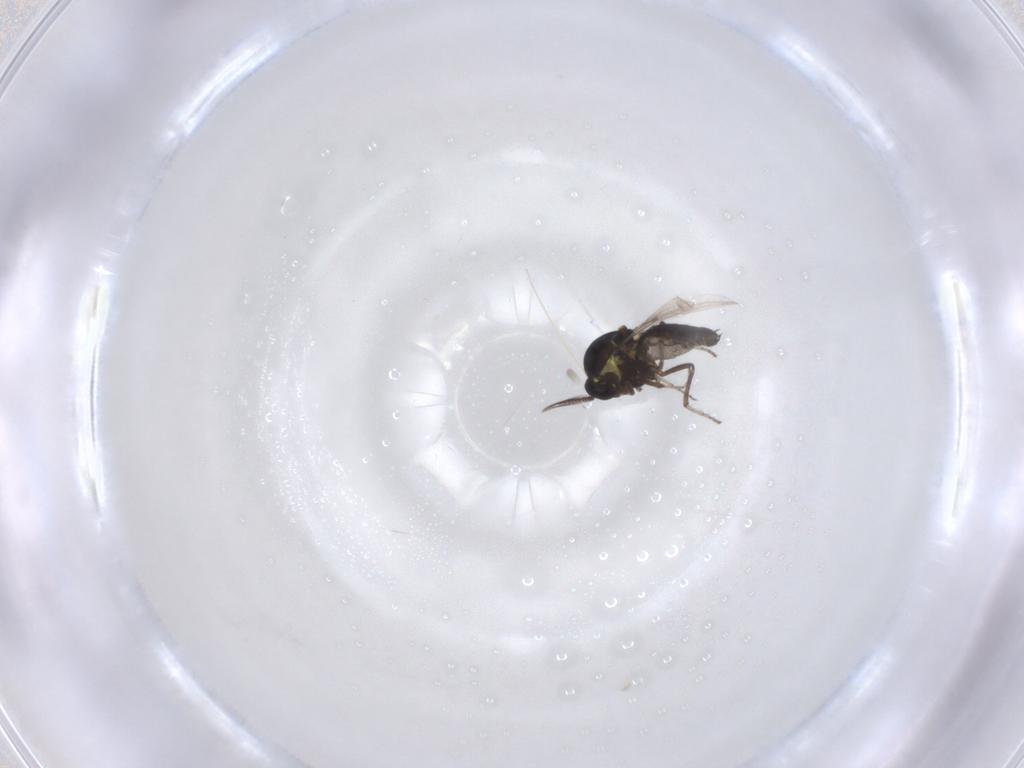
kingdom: Animalia
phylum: Arthropoda
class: Insecta
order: Diptera
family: Ceratopogonidae
